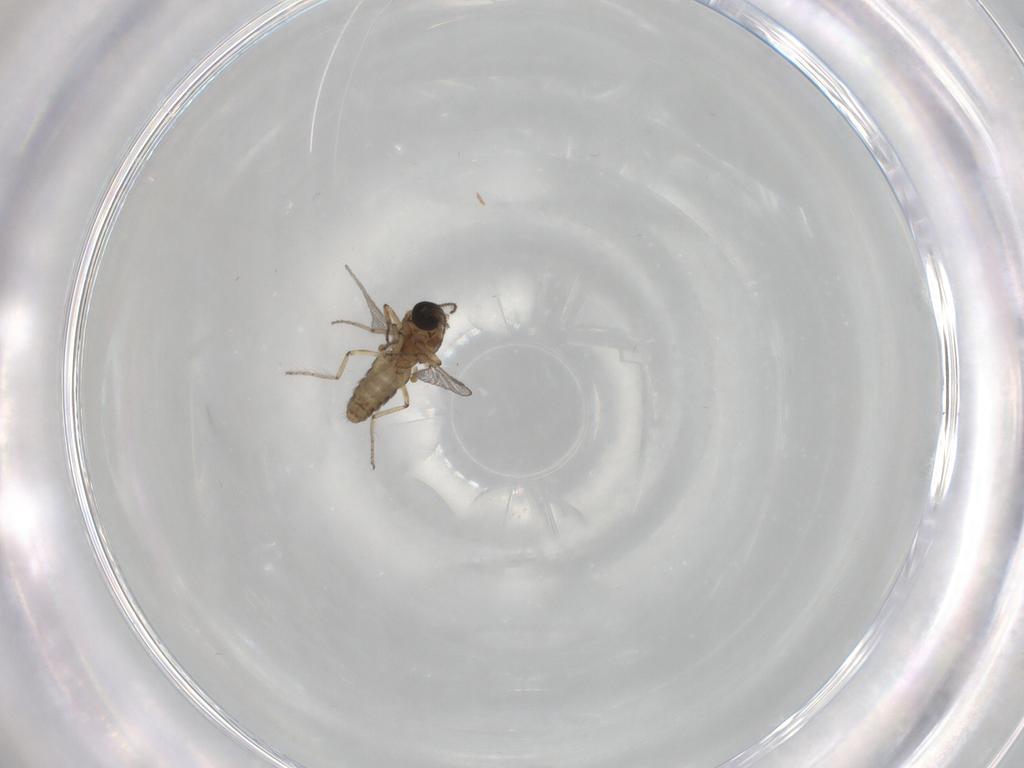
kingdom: Animalia
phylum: Arthropoda
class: Insecta
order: Diptera
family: Ceratopogonidae
